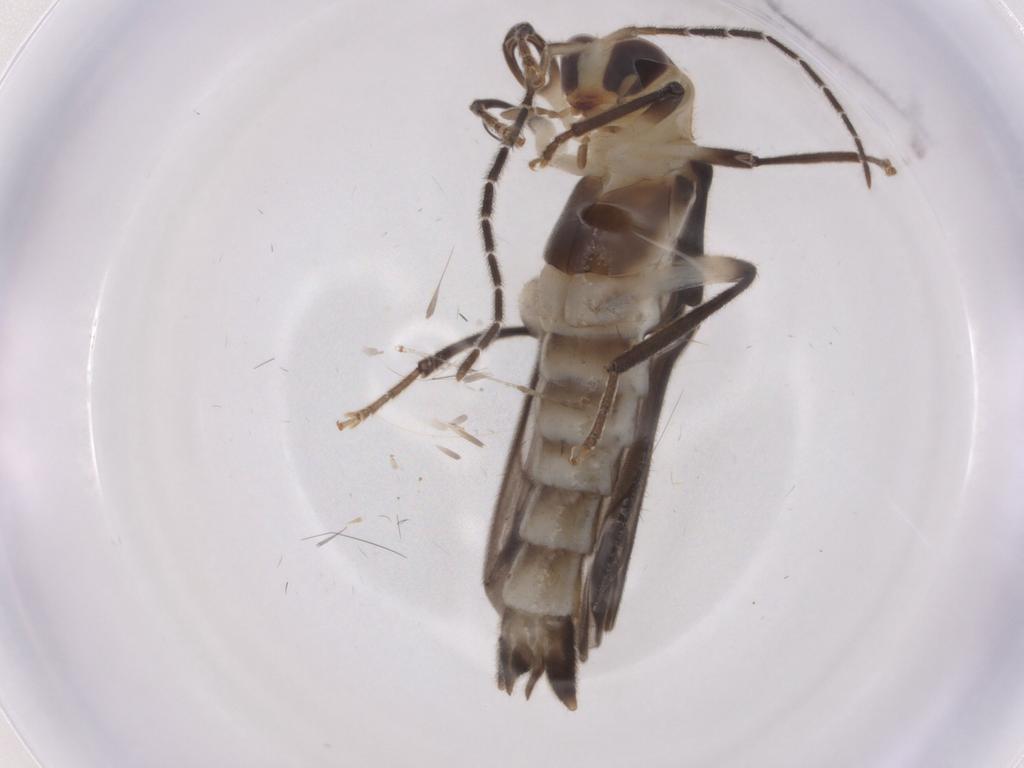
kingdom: Animalia
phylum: Arthropoda
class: Insecta
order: Coleoptera
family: Cantharidae
